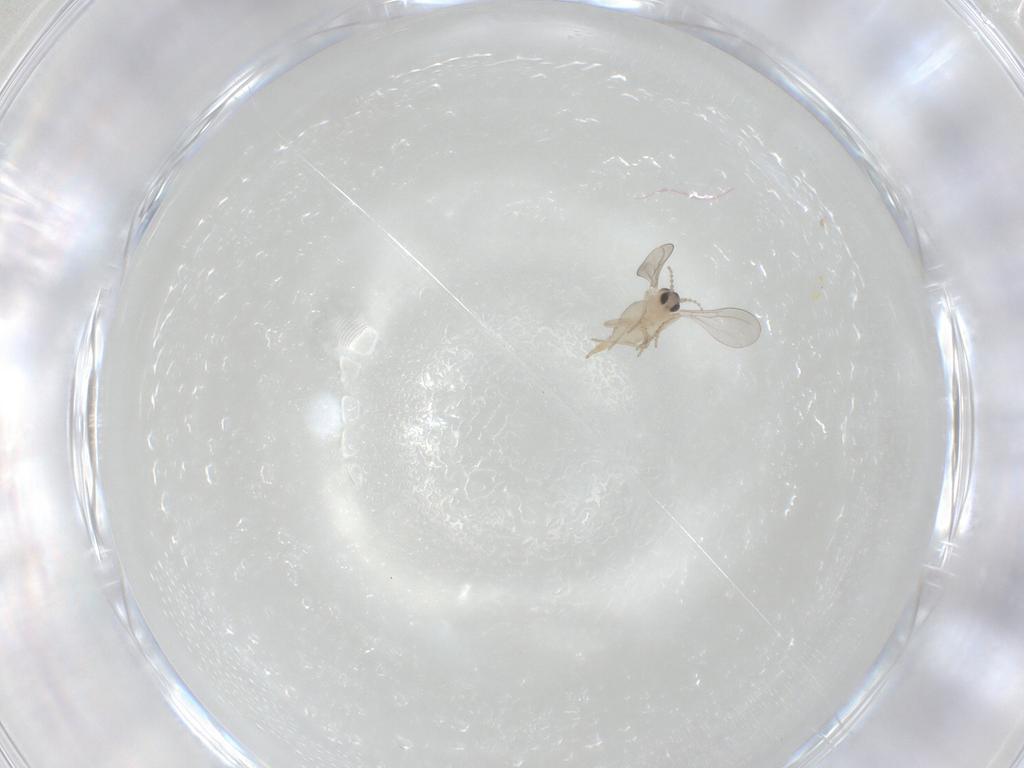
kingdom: Animalia
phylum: Arthropoda
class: Insecta
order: Diptera
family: Cecidomyiidae
